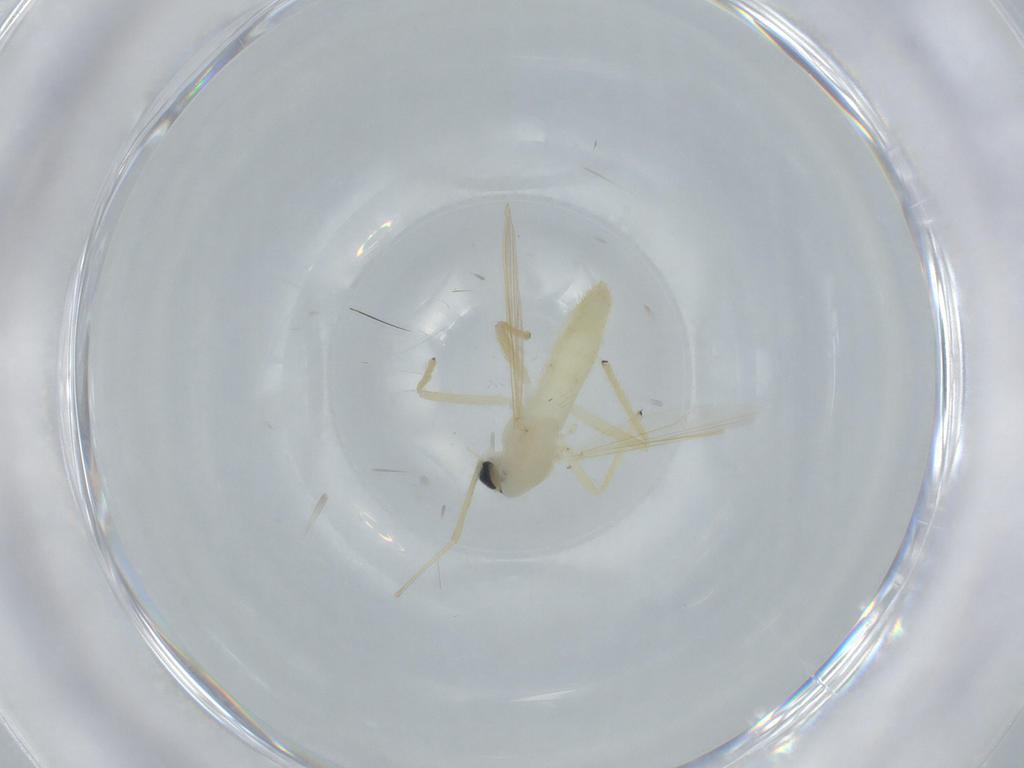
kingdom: Animalia
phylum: Arthropoda
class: Insecta
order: Diptera
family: Chironomidae
